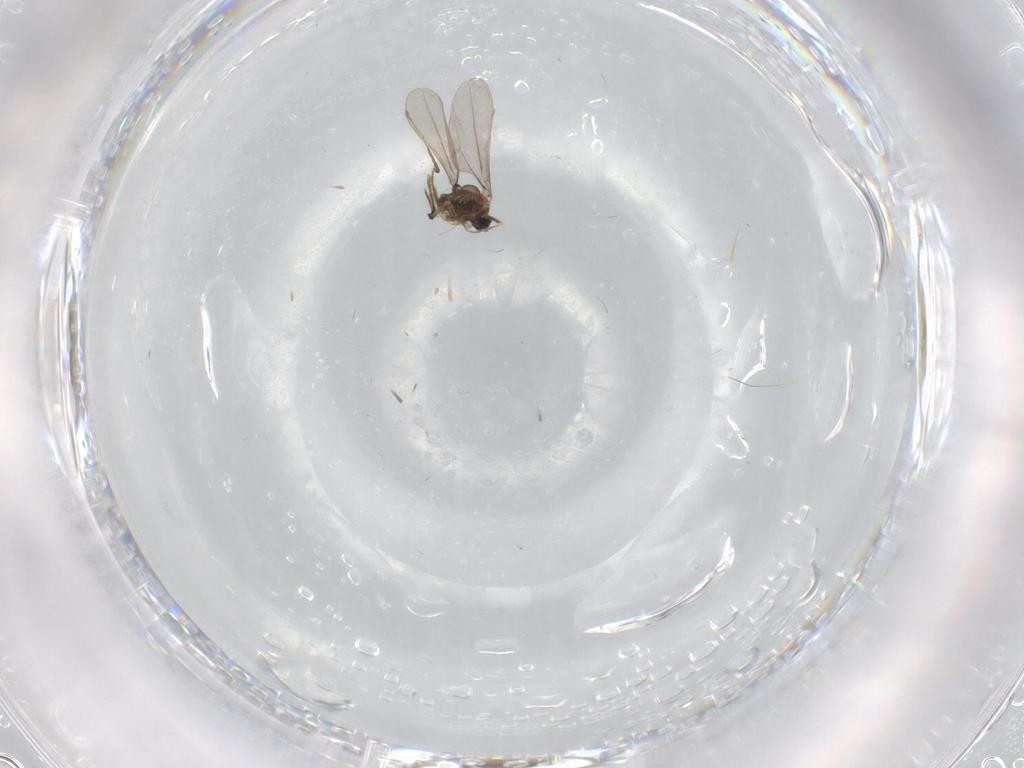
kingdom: Animalia
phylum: Arthropoda
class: Insecta
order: Diptera
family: Cecidomyiidae
